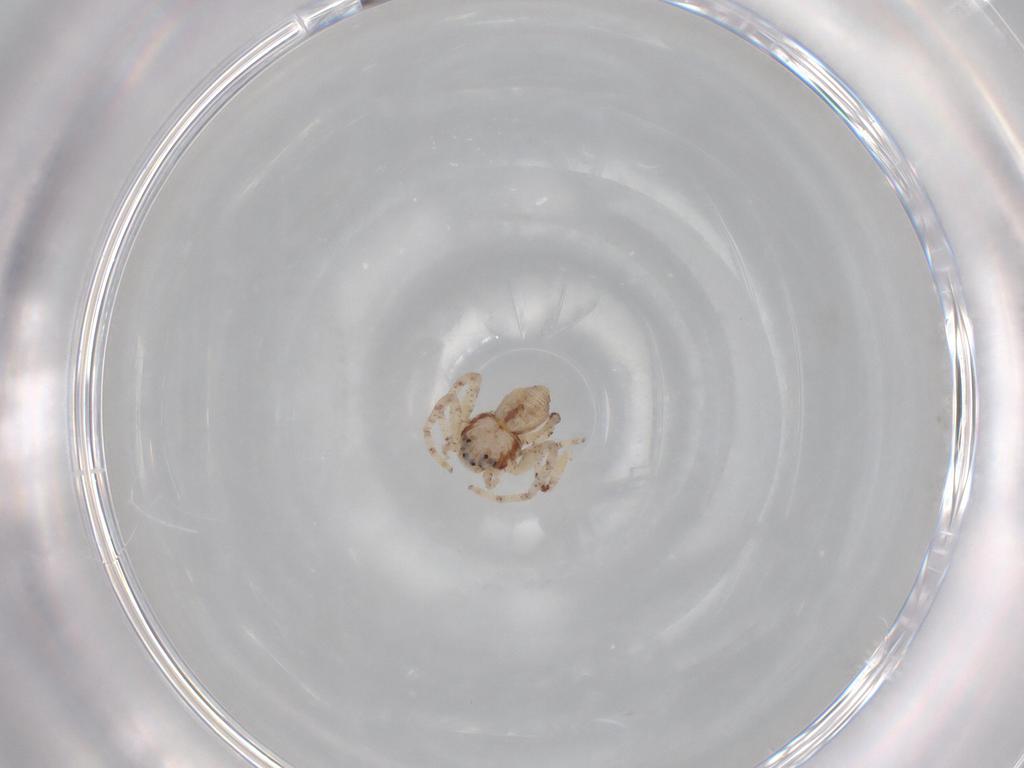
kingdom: Animalia
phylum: Arthropoda
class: Arachnida
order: Araneae
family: Philodromidae
